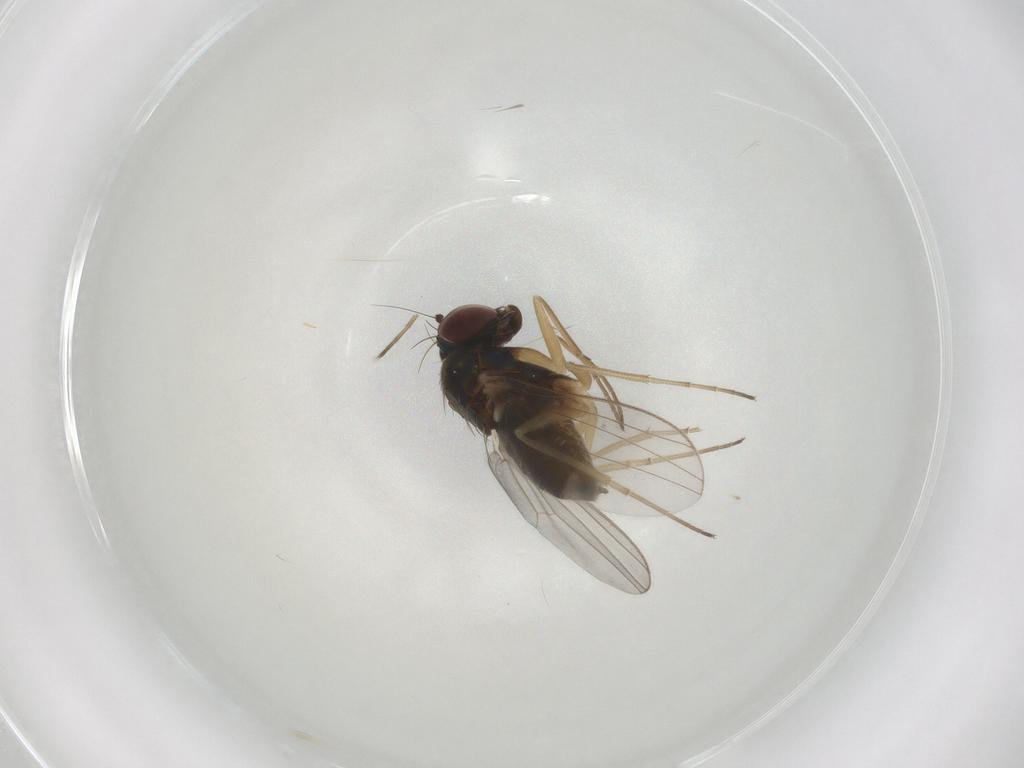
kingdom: Animalia
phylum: Arthropoda
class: Insecta
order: Diptera
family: Dolichopodidae
